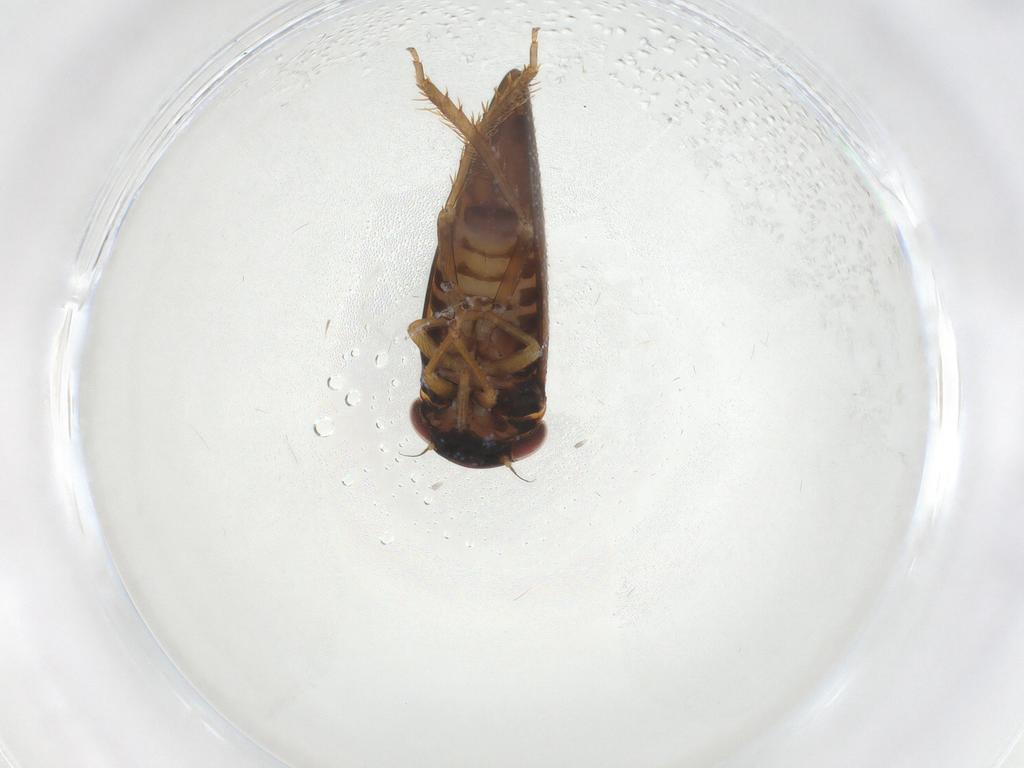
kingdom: Animalia
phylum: Arthropoda
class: Insecta
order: Hemiptera
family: Cicadellidae
